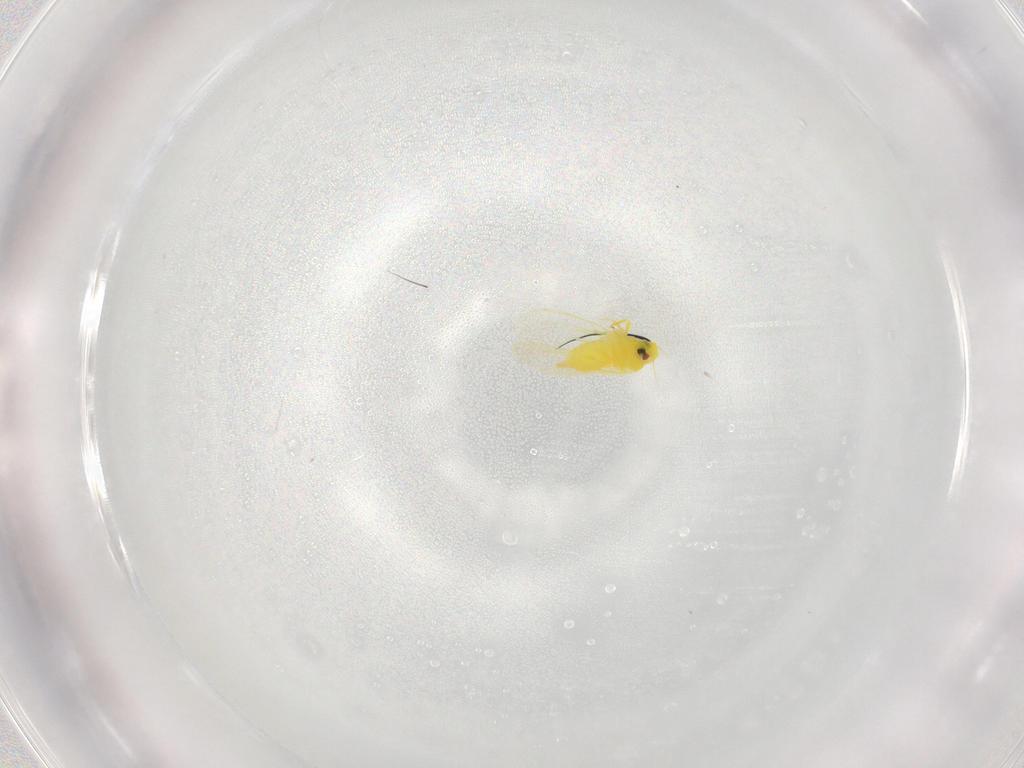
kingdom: Animalia
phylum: Arthropoda
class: Insecta
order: Hemiptera
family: Aleyrodidae
